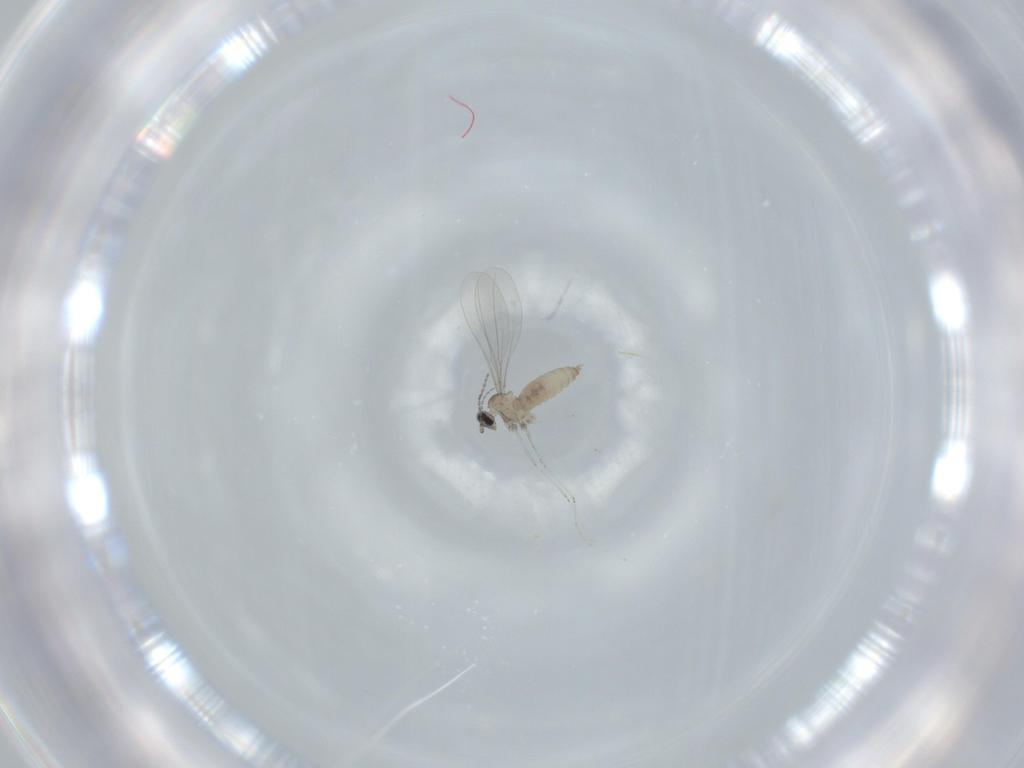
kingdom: Animalia
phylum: Arthropoda
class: Insecta
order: Diptera
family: Cecidomyiidae
